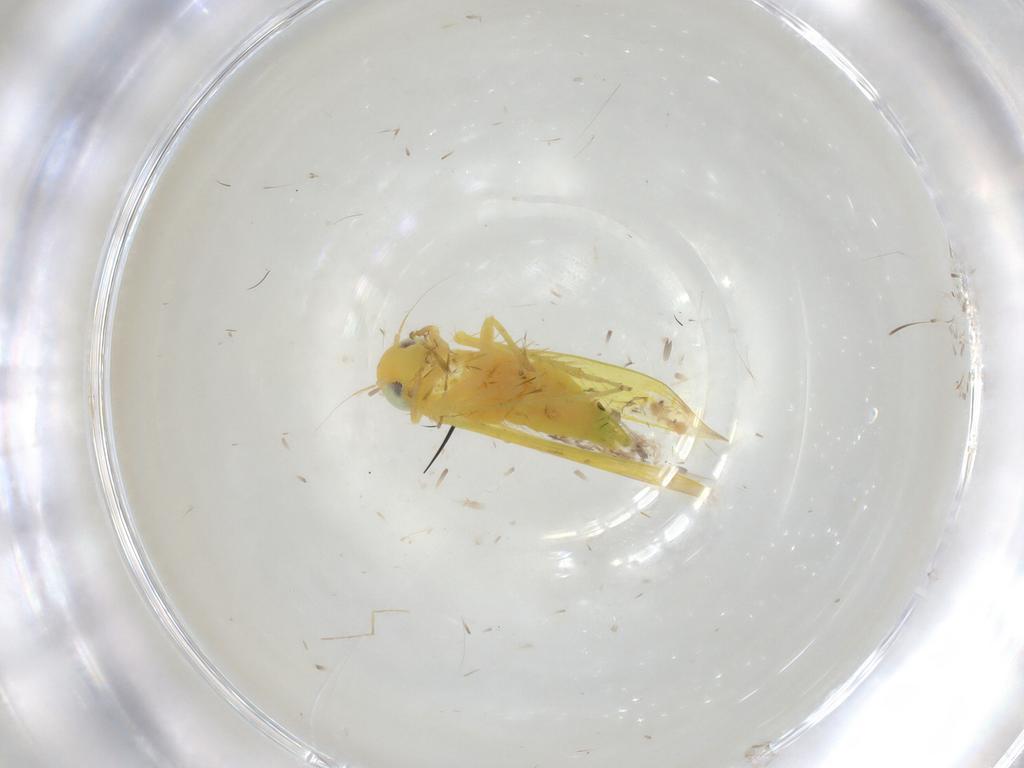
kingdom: Animalia
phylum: Arthropoda
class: Insecta
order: Hemiptera
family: Cicadellidae
